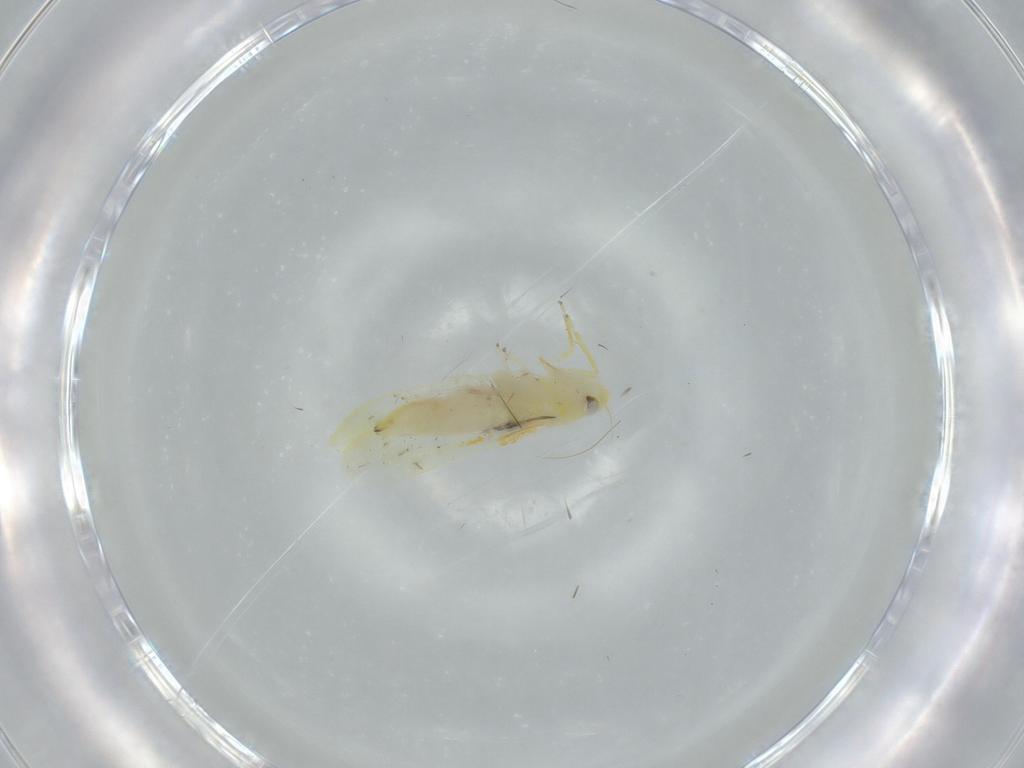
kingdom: Animalia
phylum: Arthropoda
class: Insecta
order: Hemiptera
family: Cicadellidae
